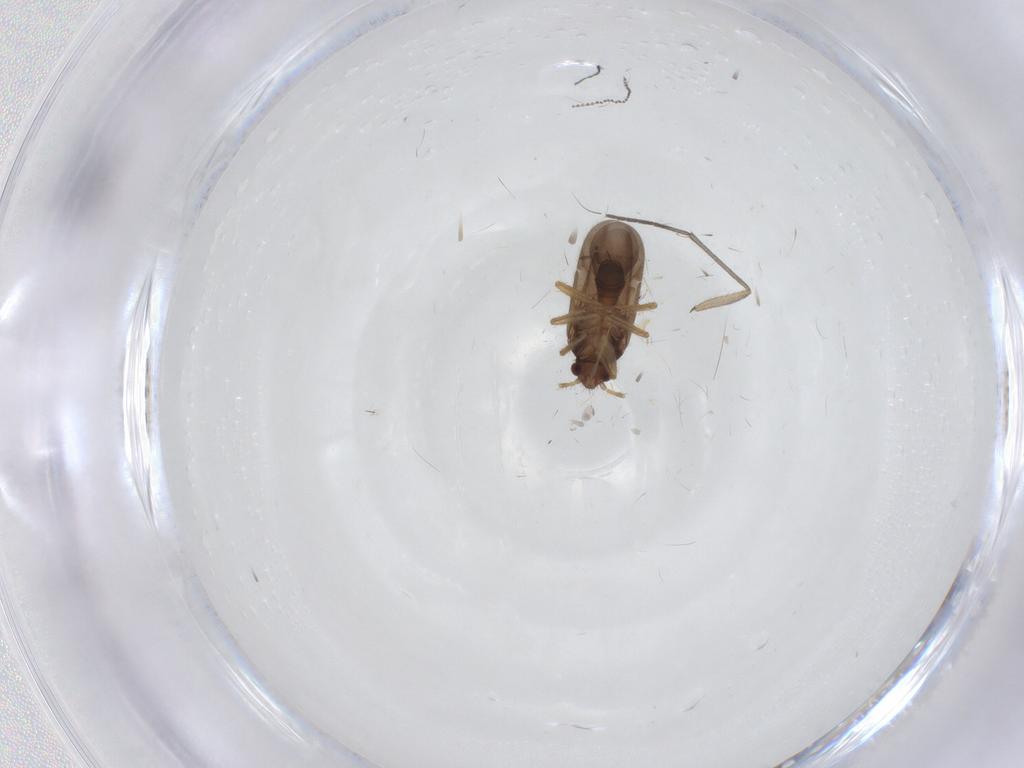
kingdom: Animalia
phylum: Arthropoda
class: Insecta
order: Hemiptera
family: Ceratocombidae
